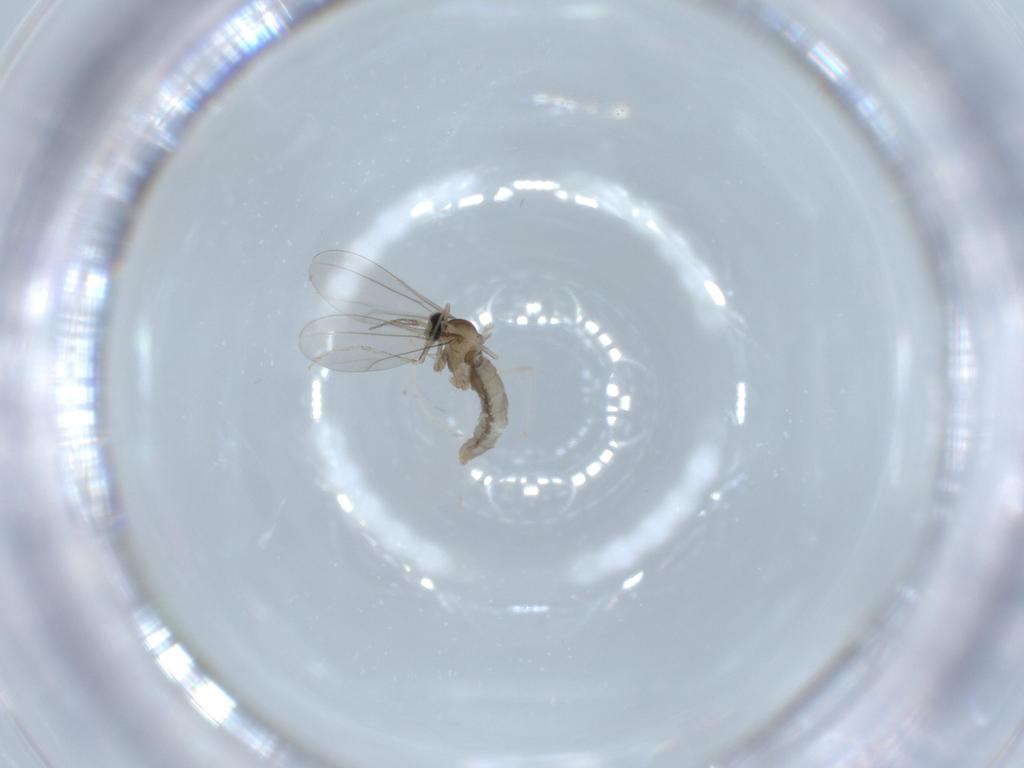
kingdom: Animalia
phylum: Arthropoda
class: Insecta
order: Diptera
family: Cecidomyiidae
